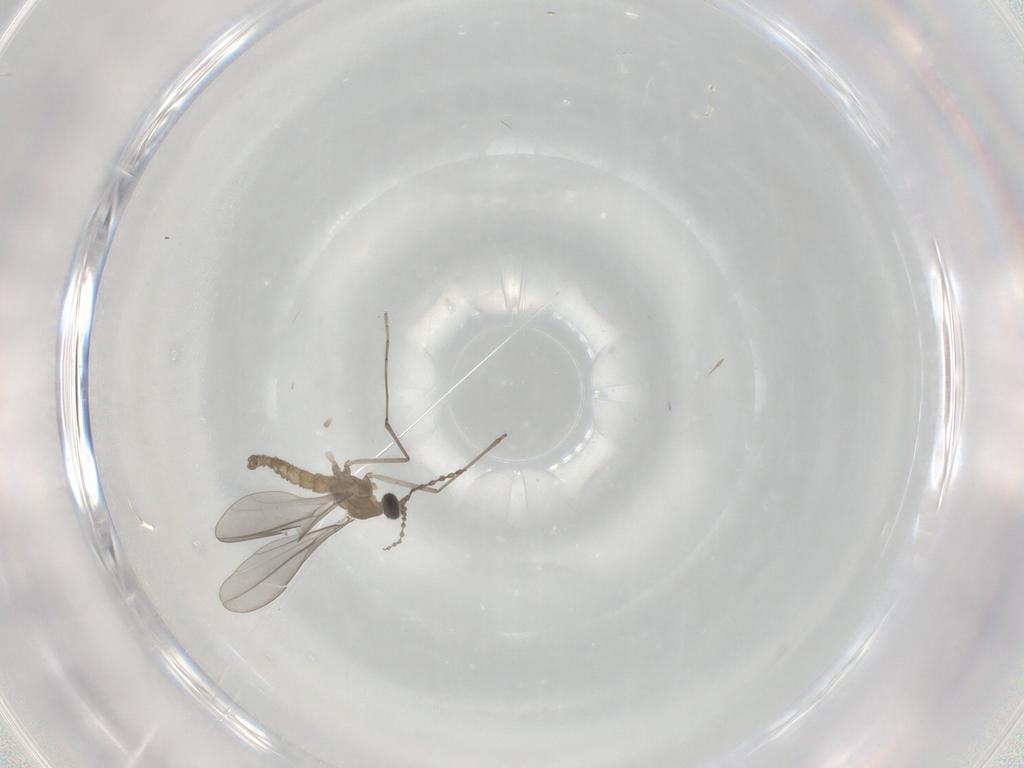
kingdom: Animalia
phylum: Arthropoda
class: Insecta
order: Diptera
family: Cecidomyiidae
